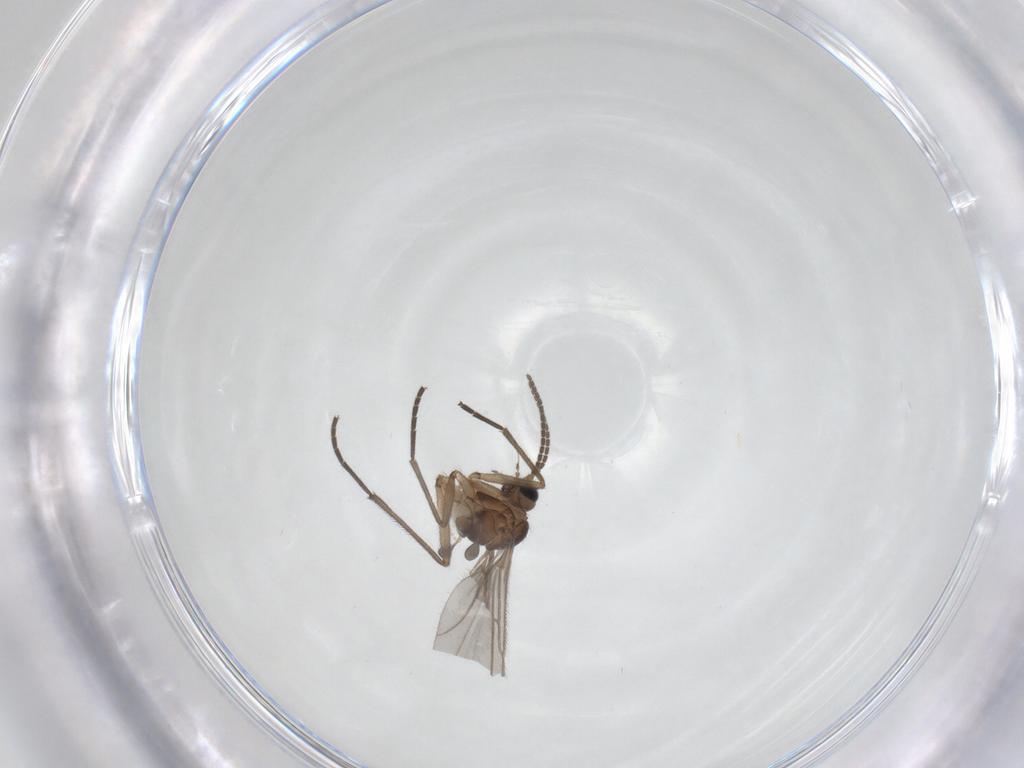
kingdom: Animalia
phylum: Arthropoda
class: Insecta
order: Diptera
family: Sciaridae
